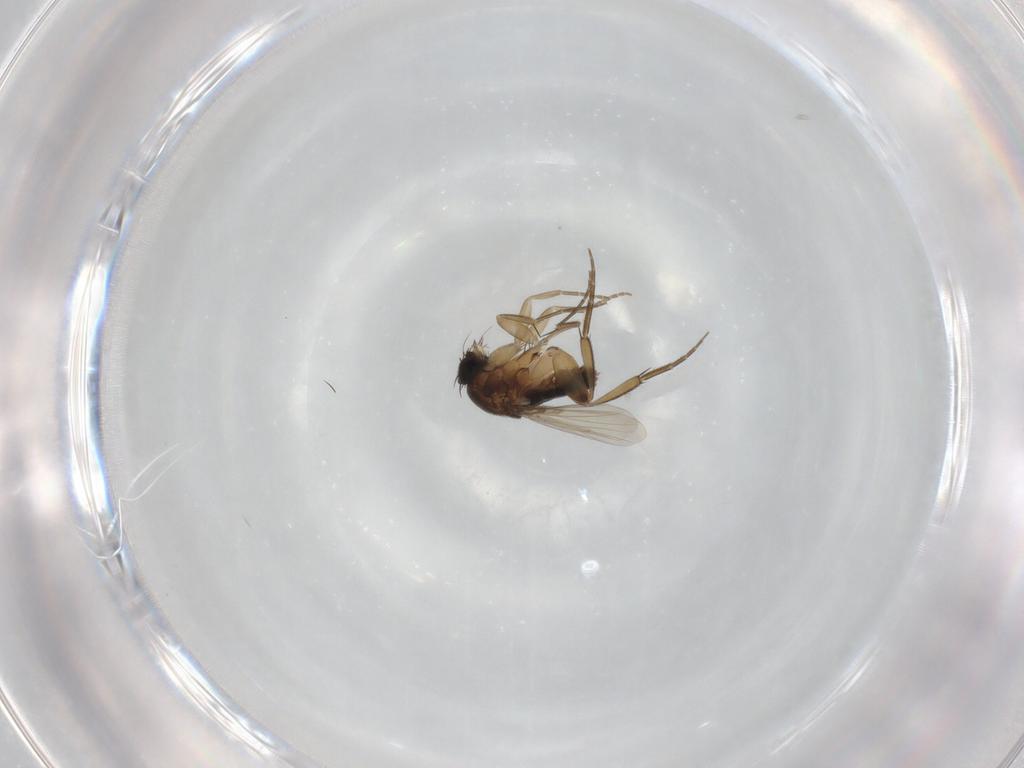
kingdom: Animalia
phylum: Arthropoda
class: Insecta
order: Diptera
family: Phoridae
